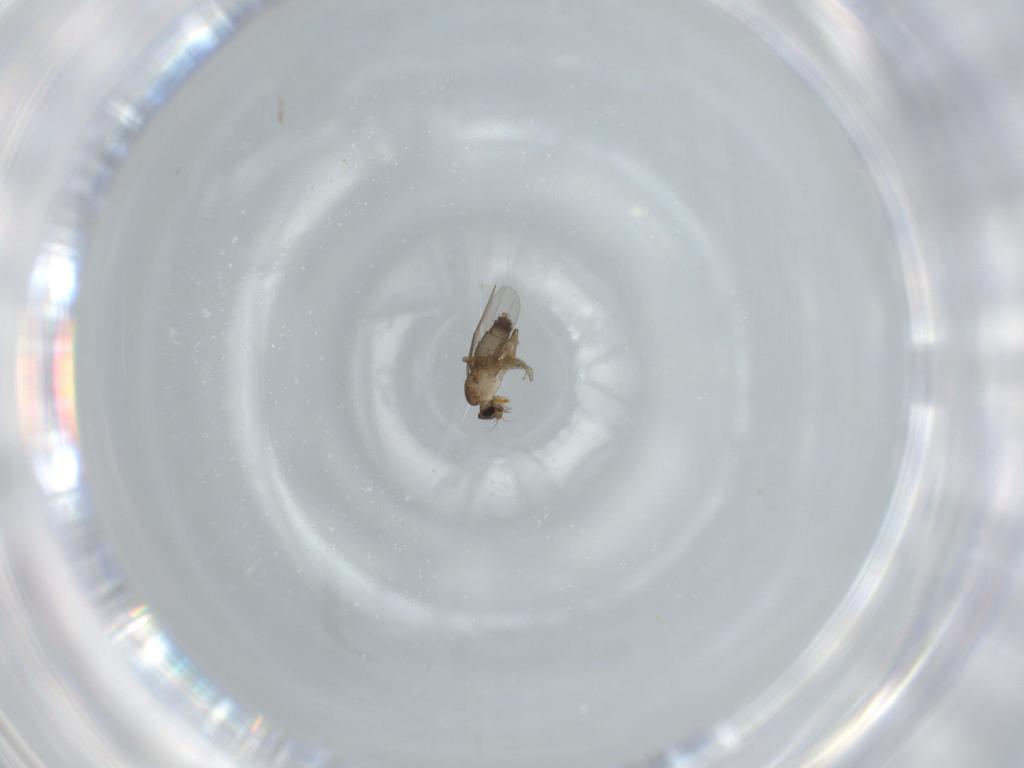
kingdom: Animalia
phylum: Arthropoda
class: Insecta
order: Diptera
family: Phoridae
